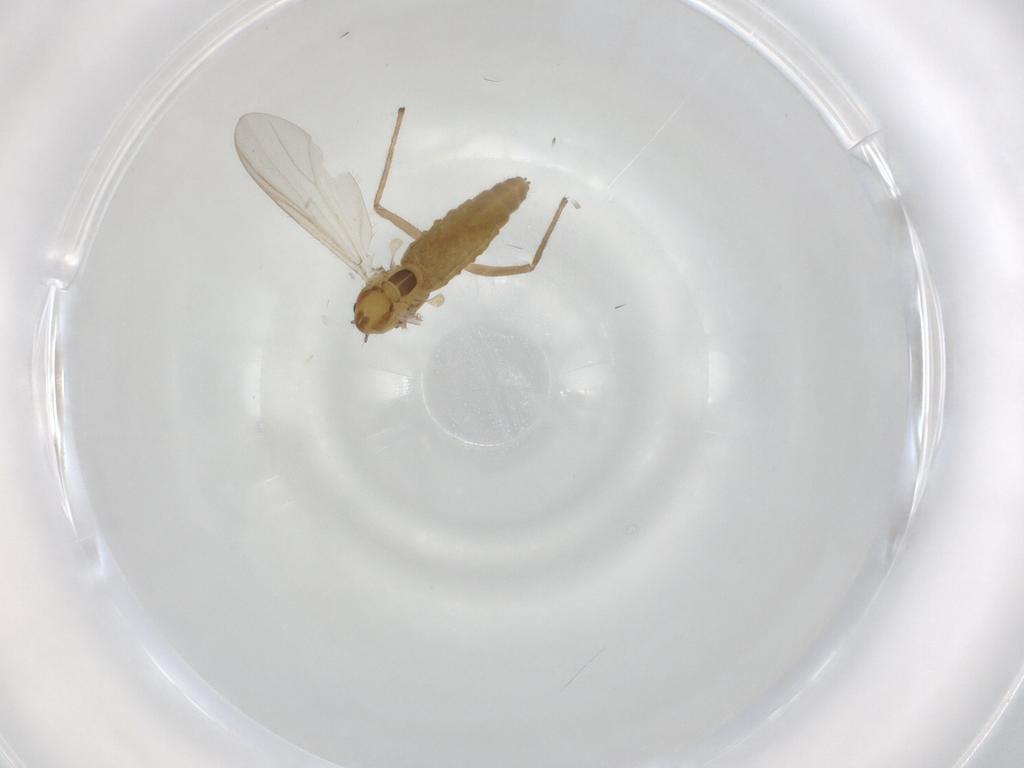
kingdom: Animalia
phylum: Arthropoda
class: Insecta
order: Diptera
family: Chironomidae
